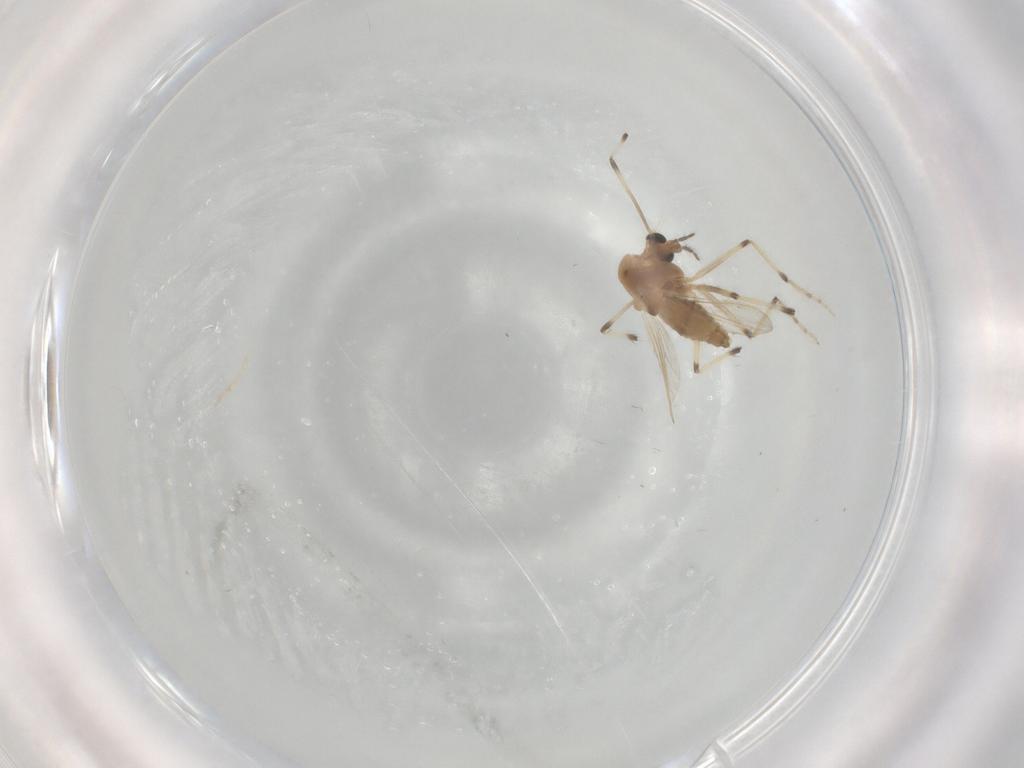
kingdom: Animalia
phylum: Arthropoda
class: Insecta
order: Diptera
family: Chironomidae
